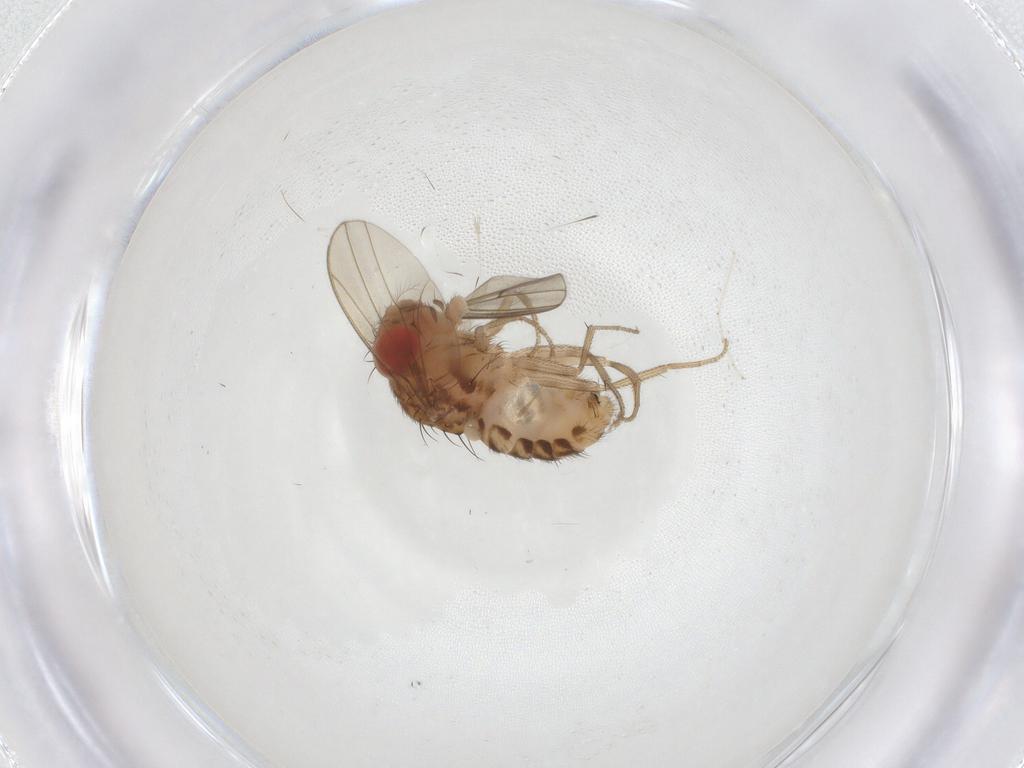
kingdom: Animalia
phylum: Arthropoda
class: Insecta
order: Diptera
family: Drosophilidae
